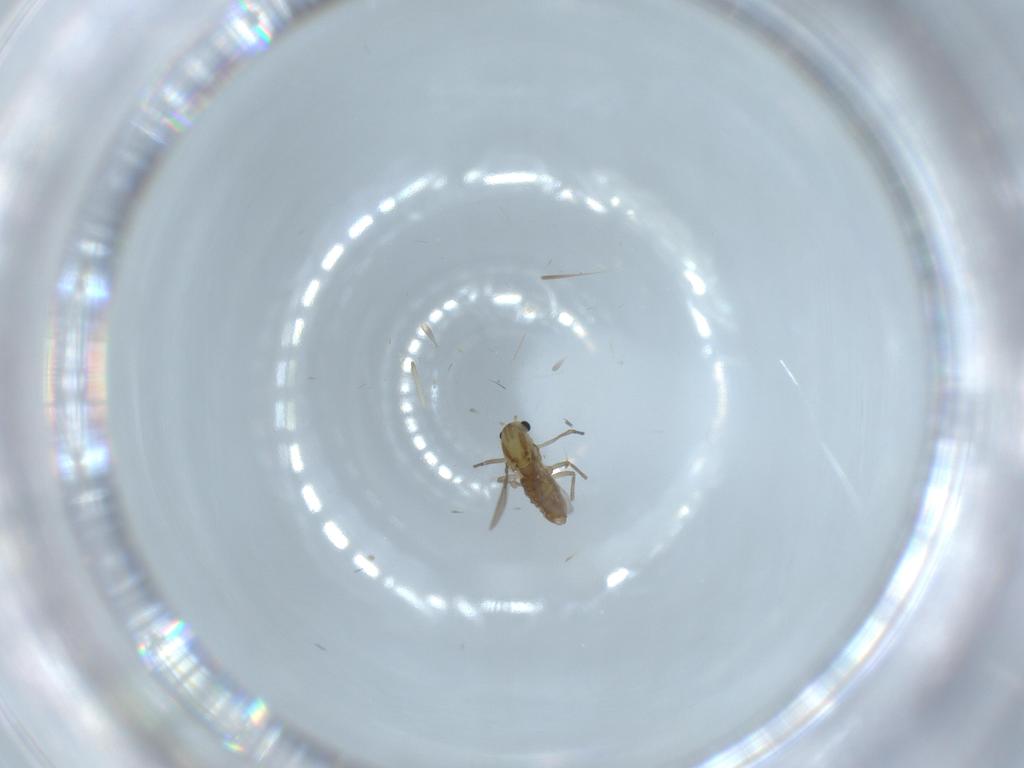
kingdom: Animalia
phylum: Arthropoda
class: Insecta
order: Diptera
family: Chironomidae
